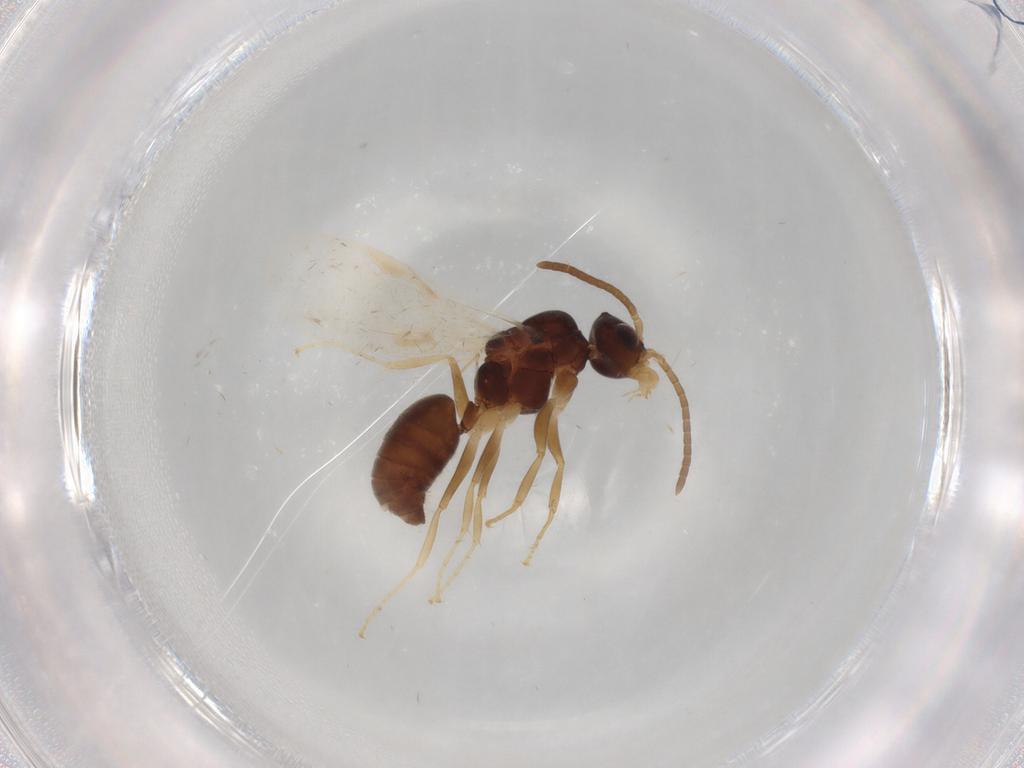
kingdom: Animalia
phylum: Arthropoda
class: Insecta
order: Hymenoptera
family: Formicidae
